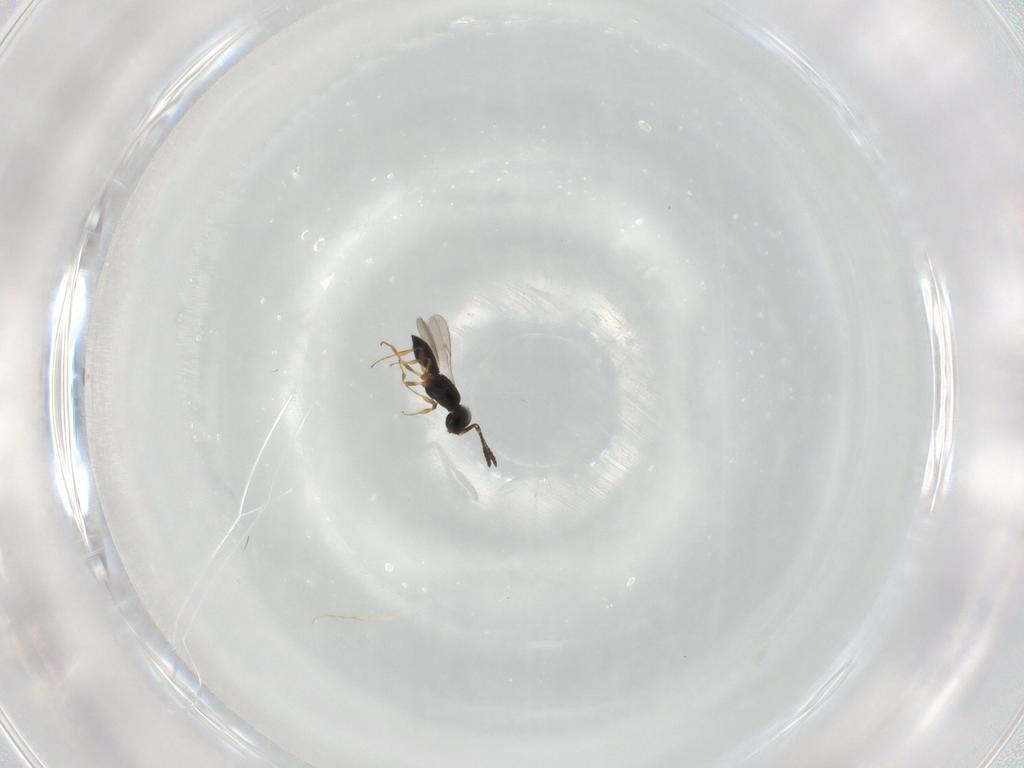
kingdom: Animalia
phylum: Arthropoda
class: Insecta
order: Hymenoptera
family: Scelionidae
